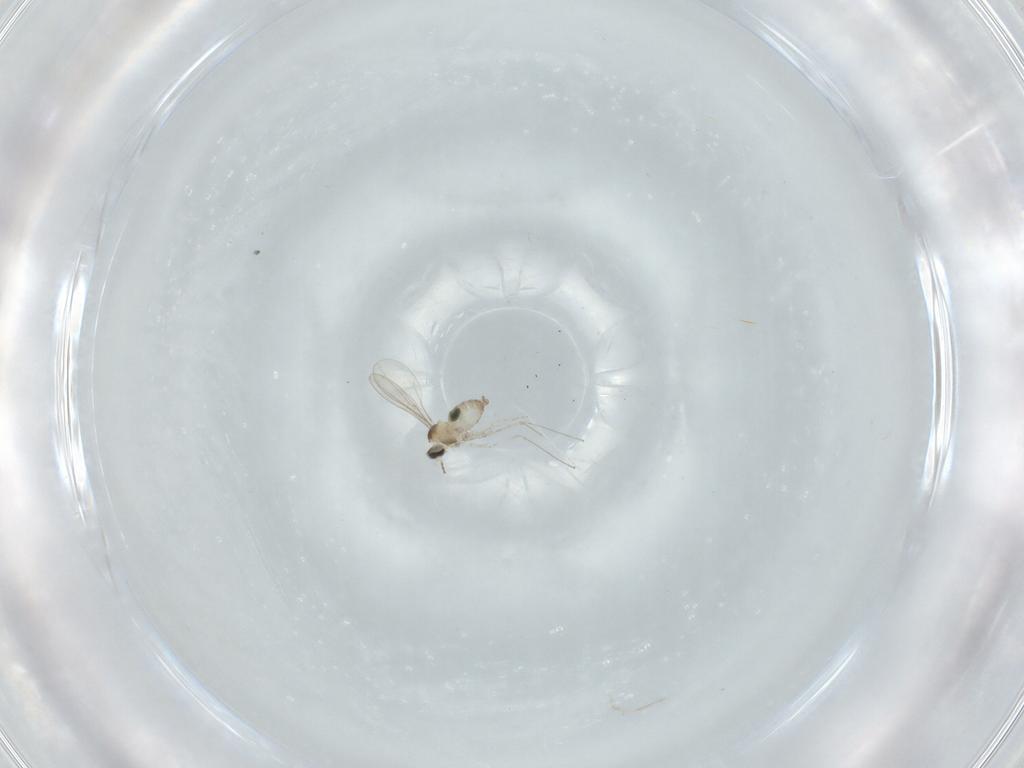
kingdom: Animalia
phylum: Arthropoda
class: Insecta
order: Diptera
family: Cecidomyiidae
